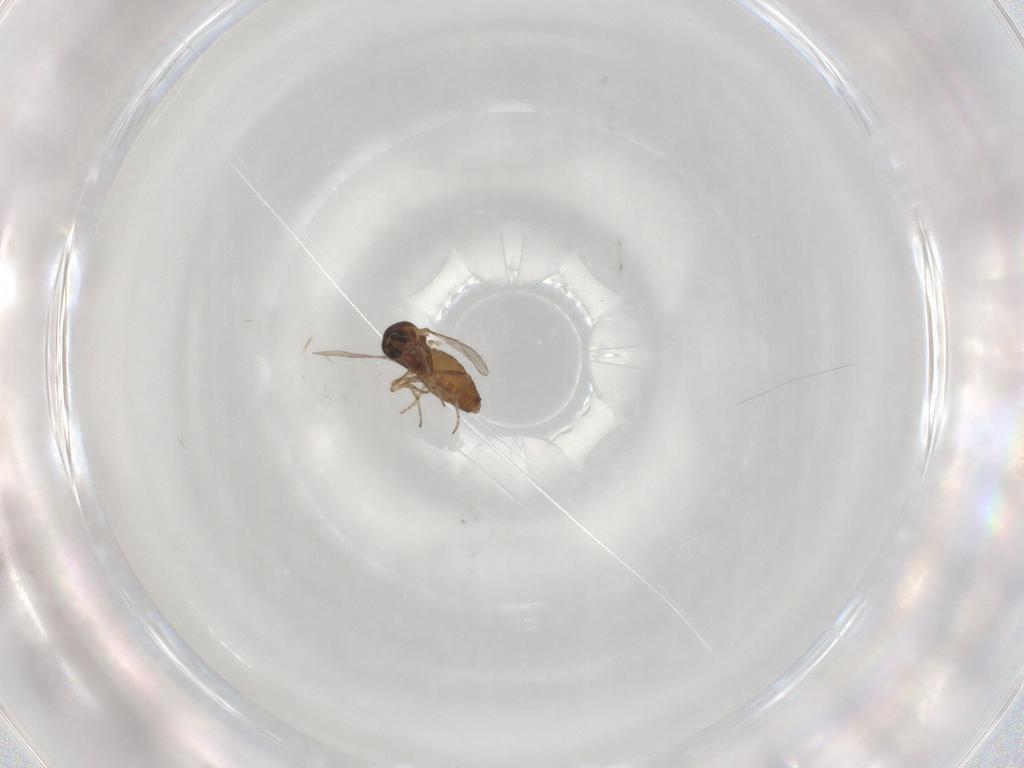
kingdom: Animalia
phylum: Arthropoda
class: Insecta
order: Diptera
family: Ceratopogonidae
